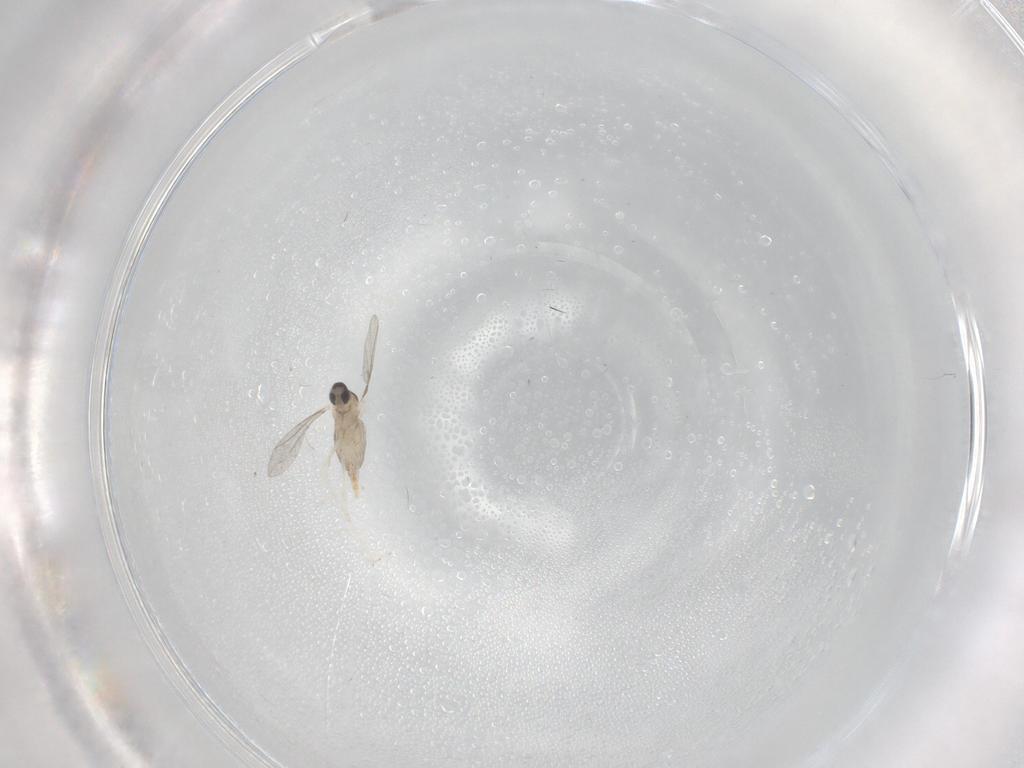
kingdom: Animalia
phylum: Arthropoda
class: Insecta
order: Diptera
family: Cecidomyiidae
